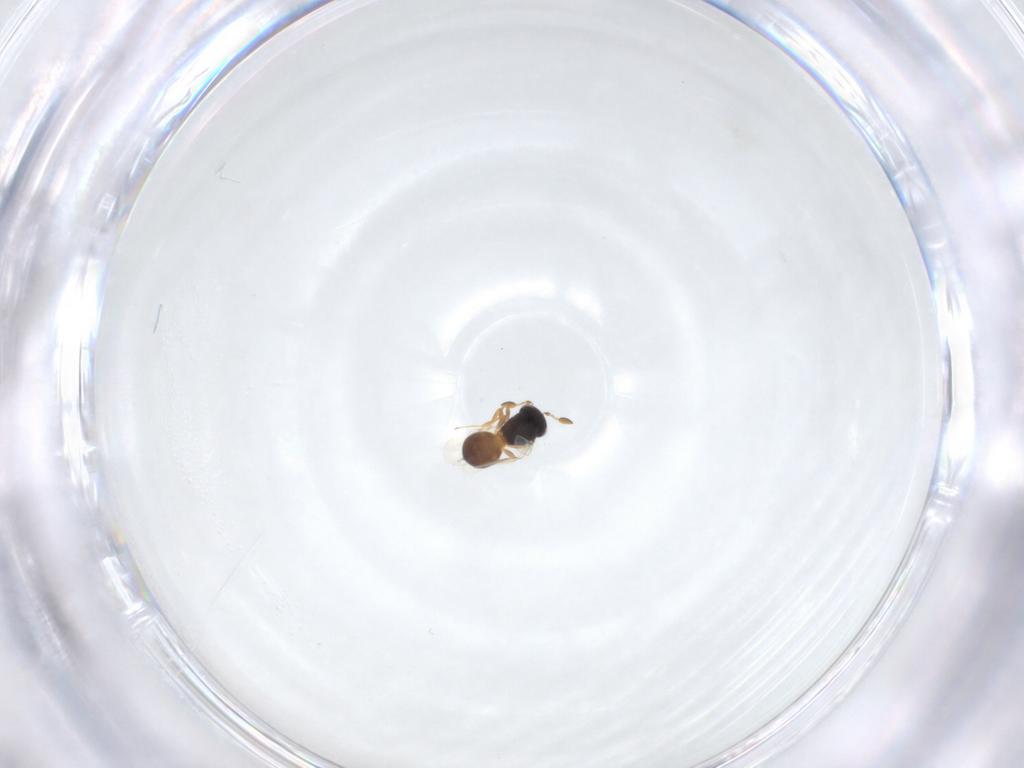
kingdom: Animalia
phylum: Arthropoda
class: Insecta
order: Hymenoptera
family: Scelionidae
